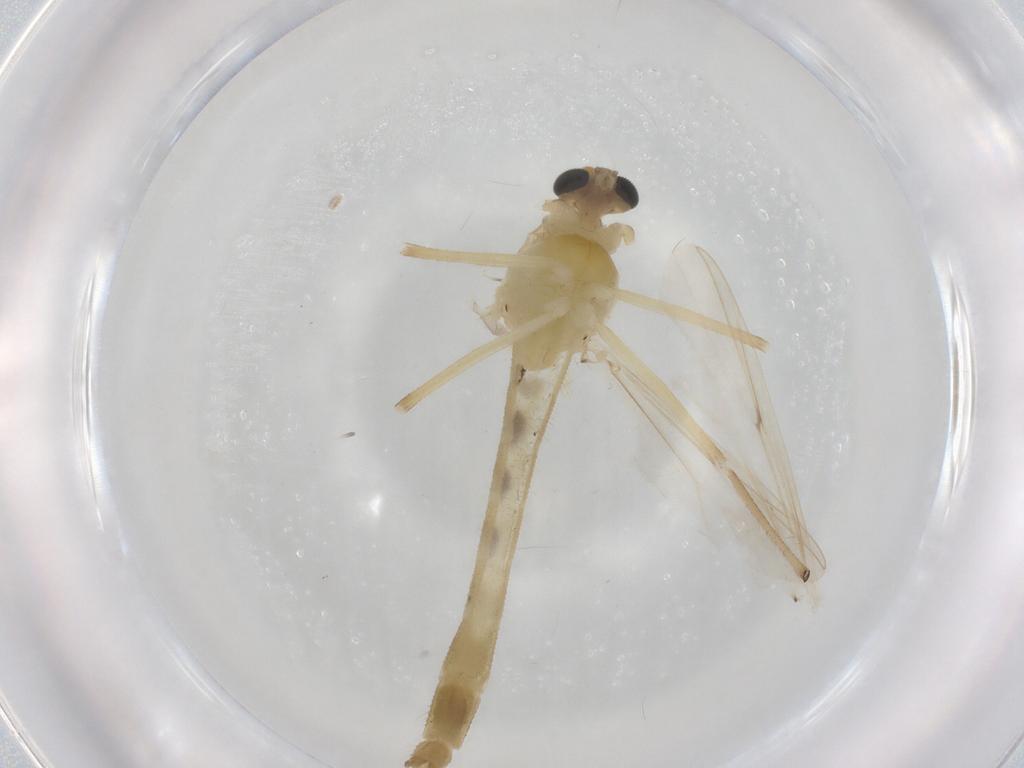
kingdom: Animalia
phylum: Arthropoda
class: Insecta
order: Diptera
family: Chironomidae
